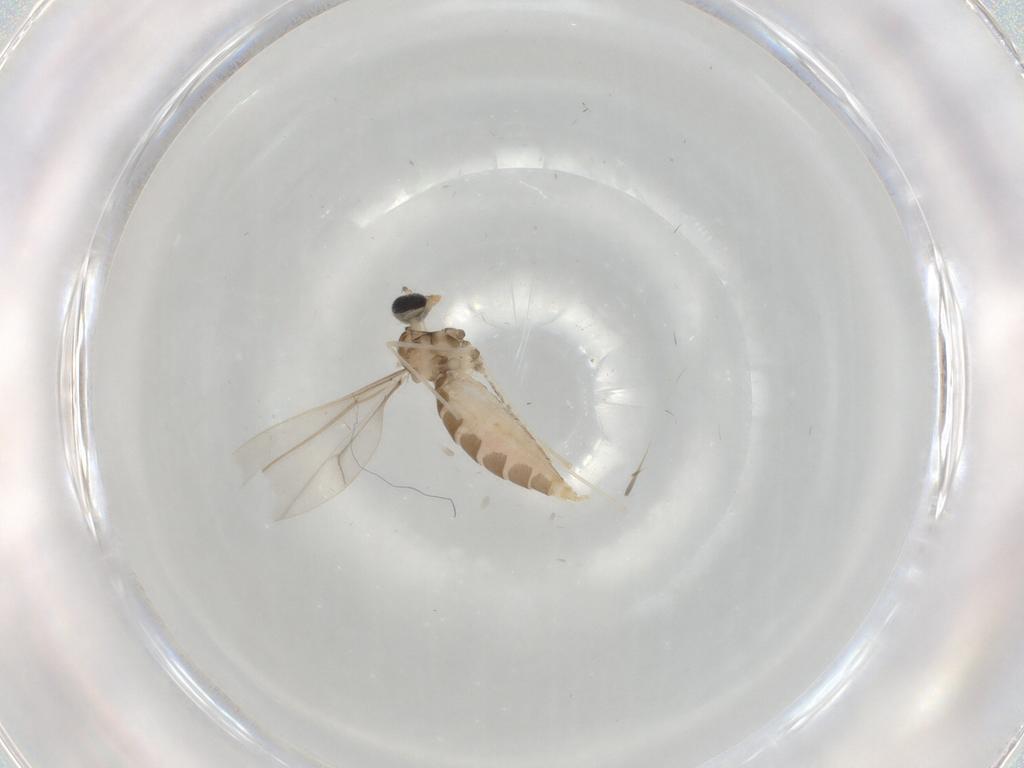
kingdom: Animalia
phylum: Arthropoda
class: Insecta
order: Diptera
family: Cecidomyiidae
